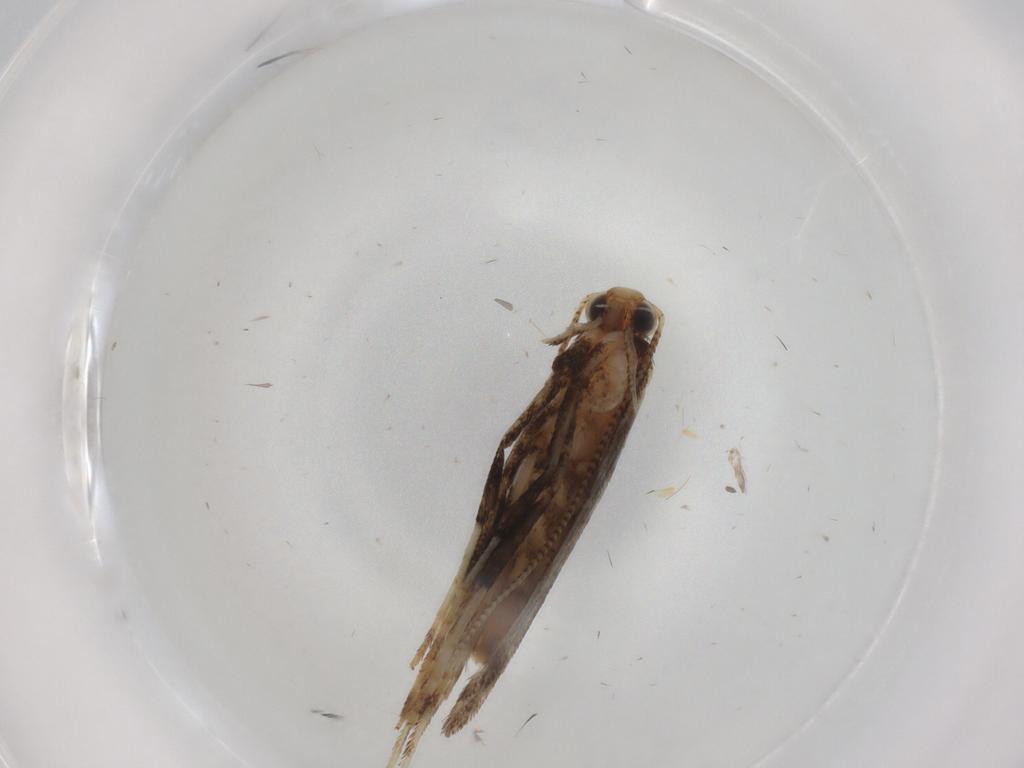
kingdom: Animalia
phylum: Arthropoda
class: Insecta
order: Lepidoptera
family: Gracillariidae
